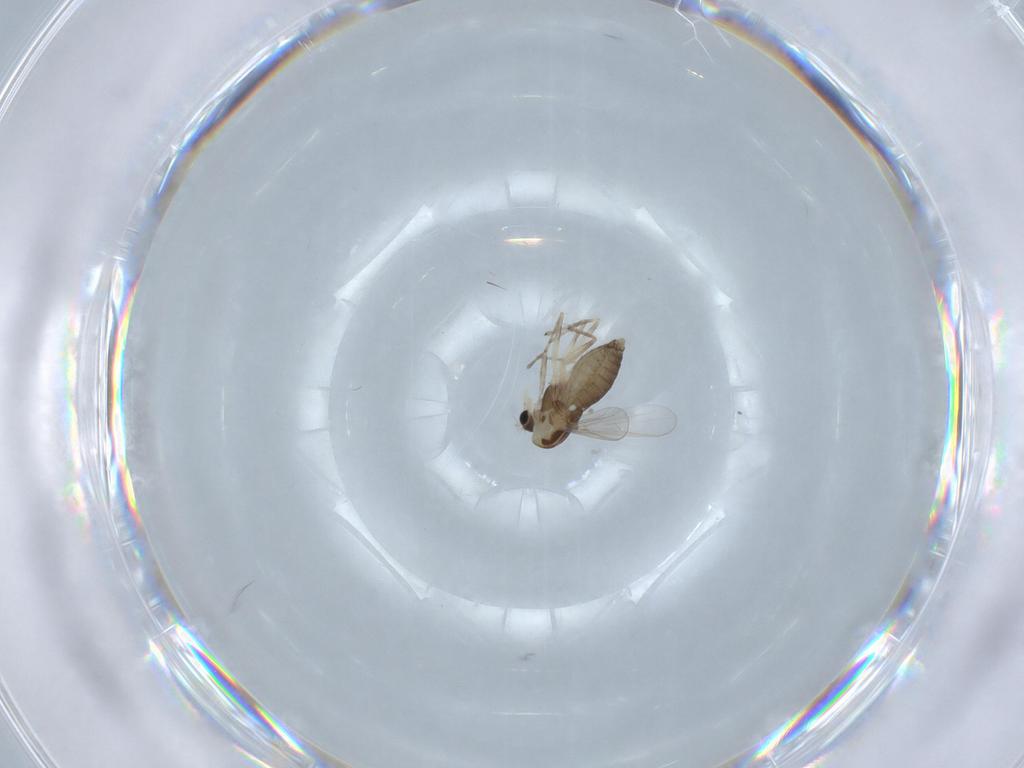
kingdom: Animalia
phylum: Arthropoda
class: Insecta
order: Diptera
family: Chironomidae
